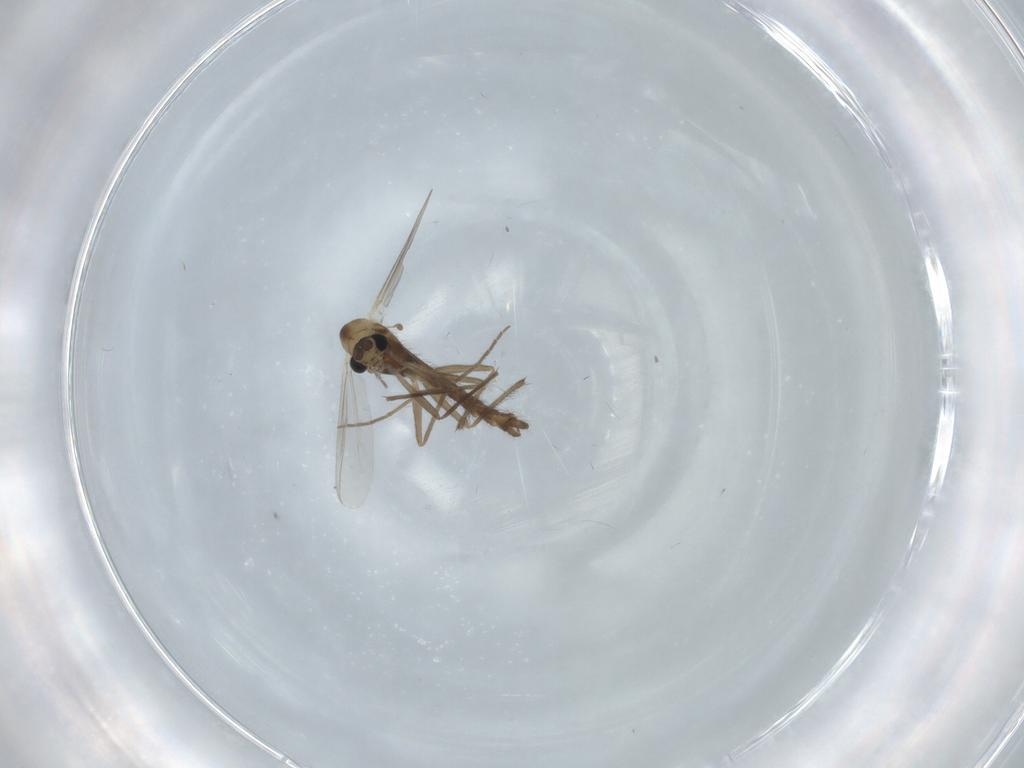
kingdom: Animalia
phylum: Arthropoda
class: Insecta
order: Diptera
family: Chironomidae
